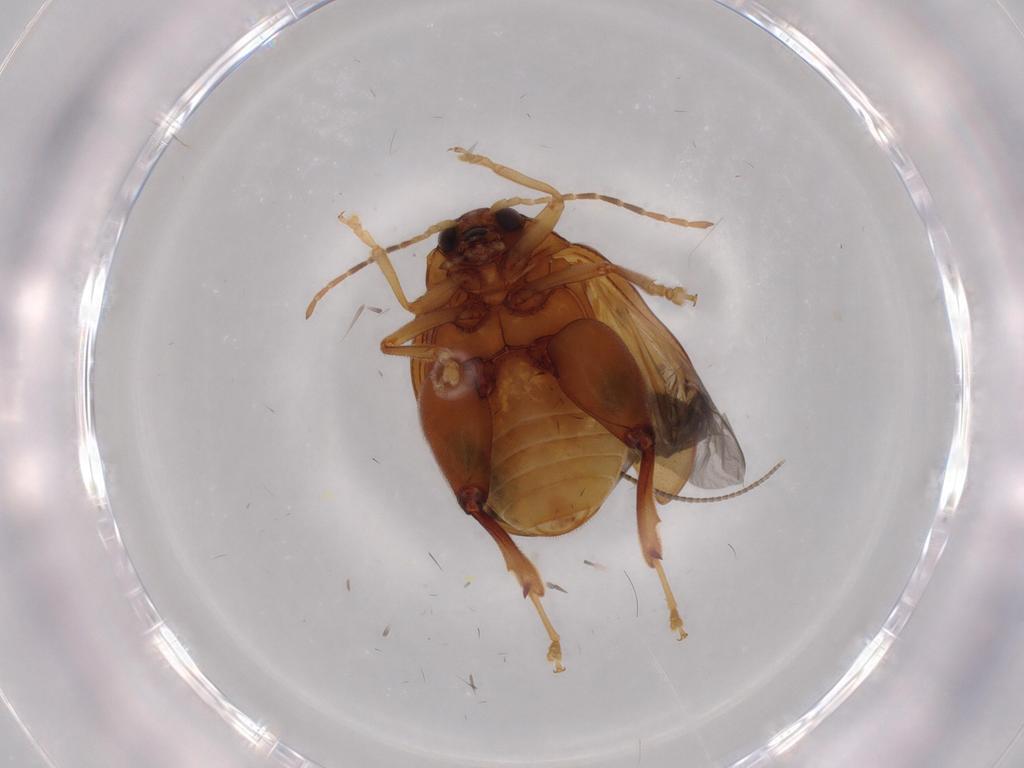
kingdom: Animalia
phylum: Arthropoda
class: Insecta
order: Coleoptera
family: Chrysomelidae
